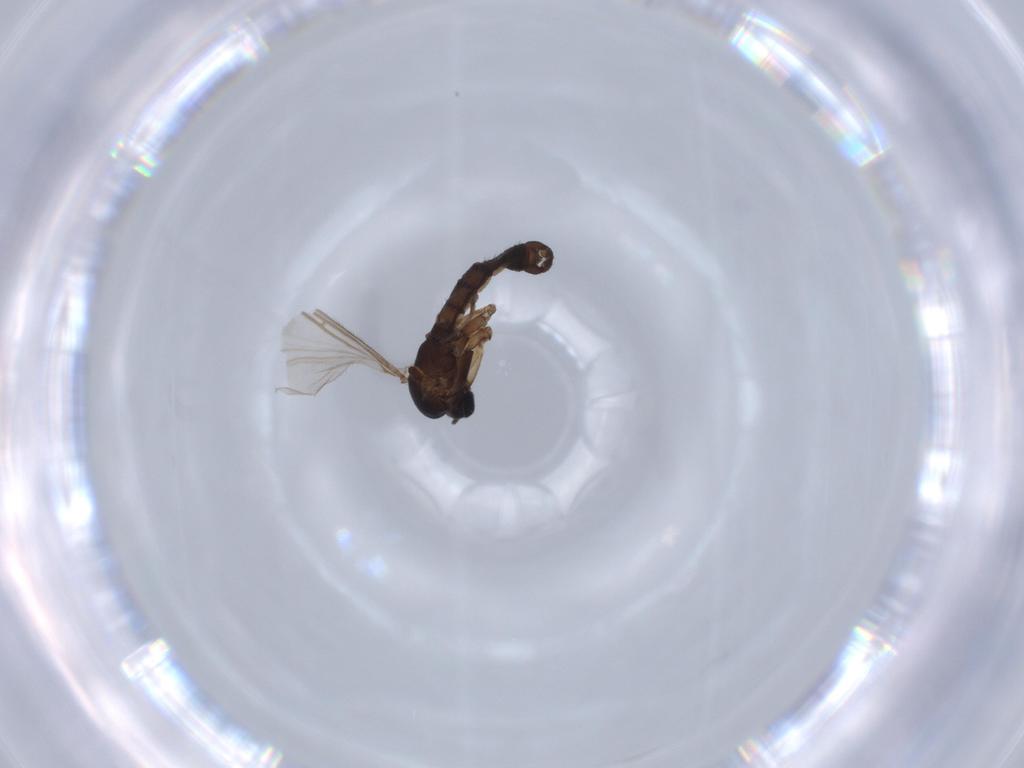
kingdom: Animalia
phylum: Arthropoda
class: Insecta
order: Diptera
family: Sciaridae
